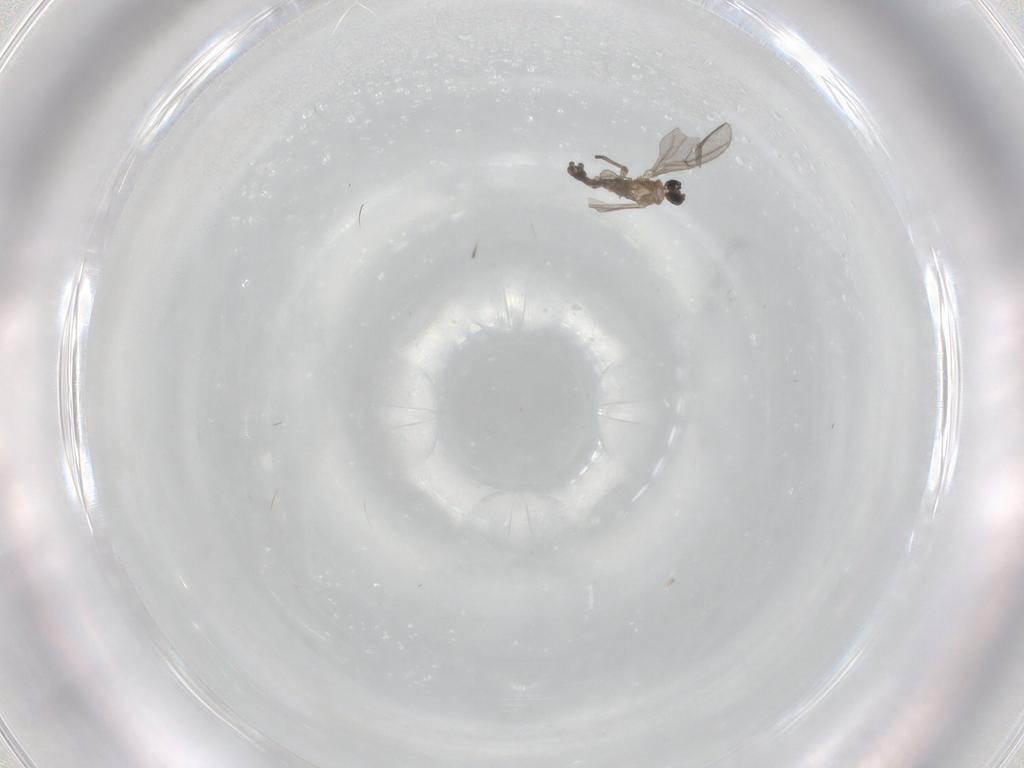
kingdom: Animalia
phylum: Arthropoda
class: Insecta
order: Diptera
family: Sciaridae
